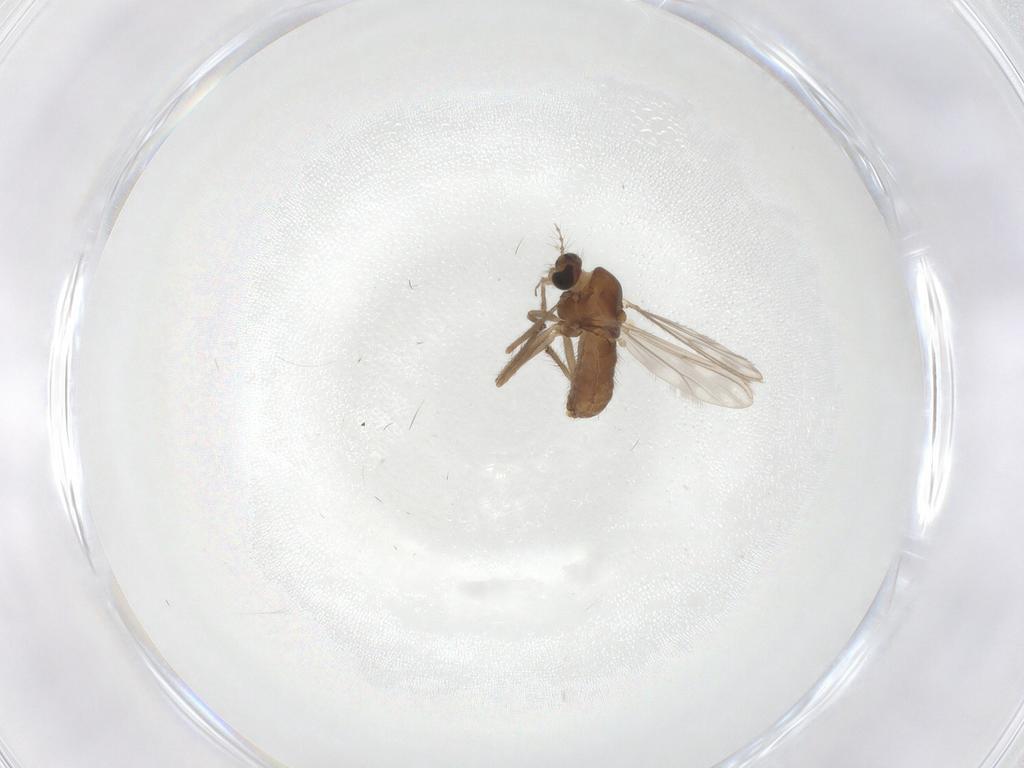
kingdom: Animalia
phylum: Arthropoda
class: Insecta
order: Diptera
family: Chironomidae
